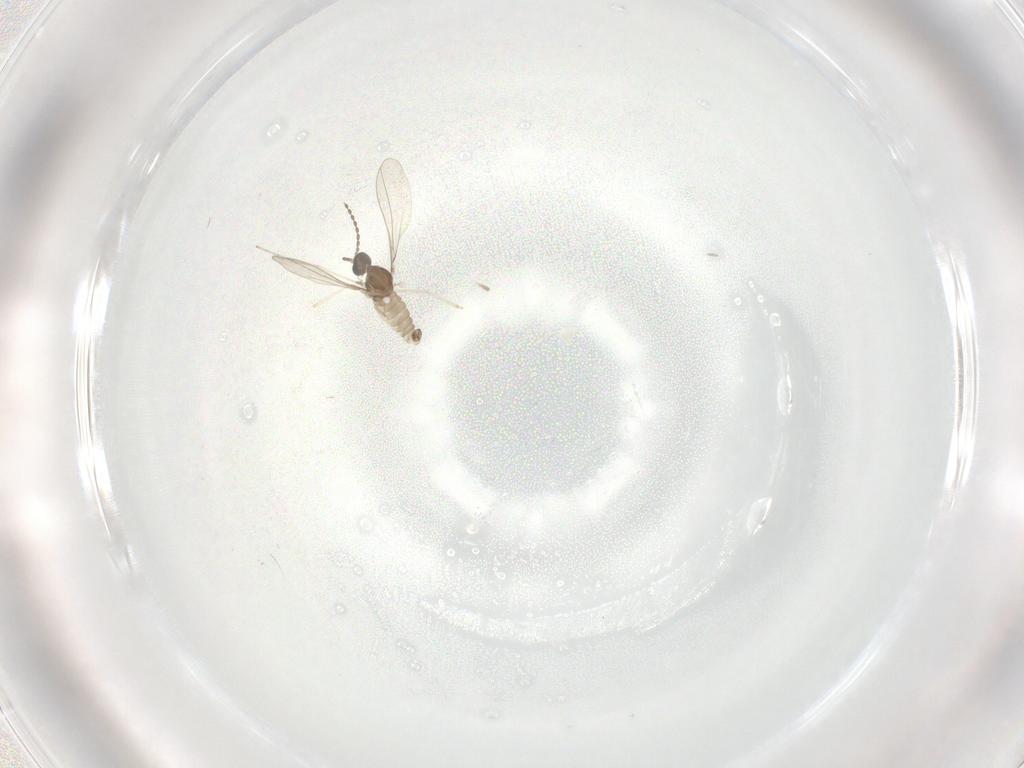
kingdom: Animalia
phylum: Arthropoda
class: Insecta
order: Diptera
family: Cecidomyiidae
